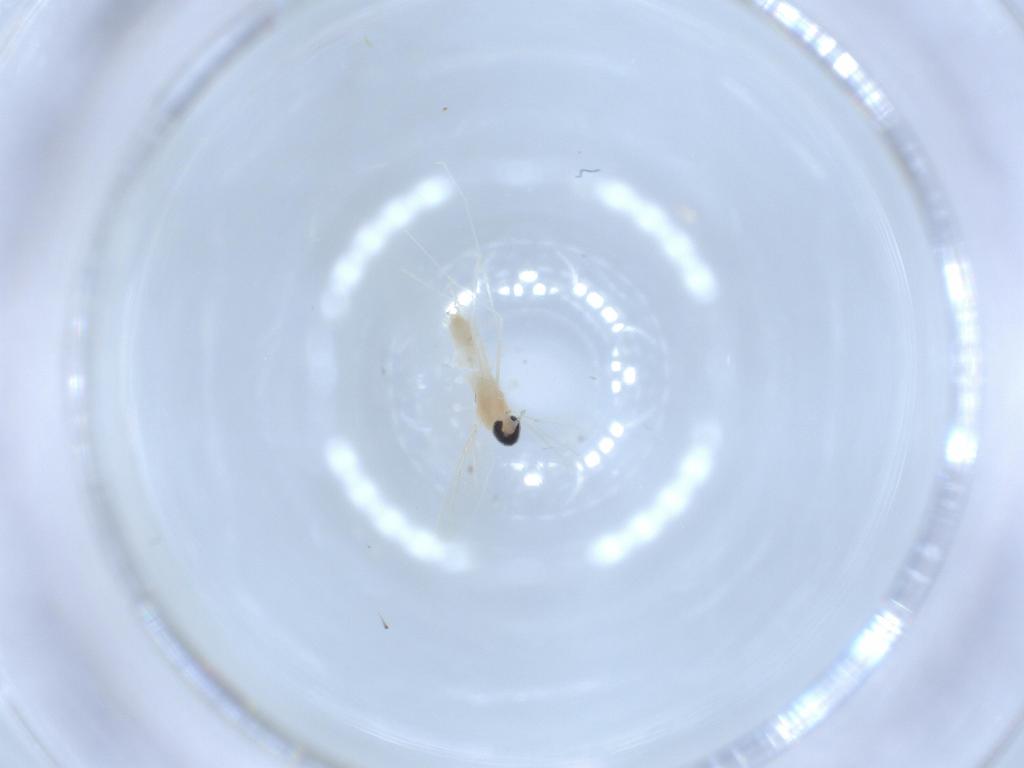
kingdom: Animalia
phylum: Arthropoda
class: Insecta
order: Diptera
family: Cecidomyiidae
